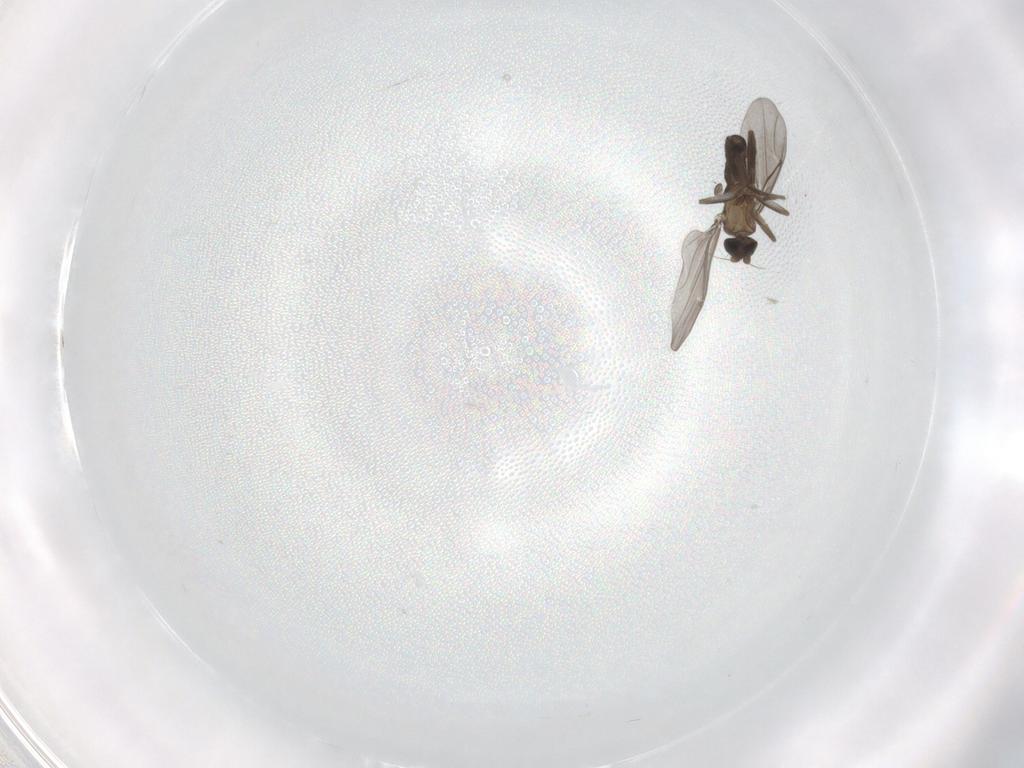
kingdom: Animalia
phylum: Arthropoda
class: Insecta
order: Diptera
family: Phoridae
